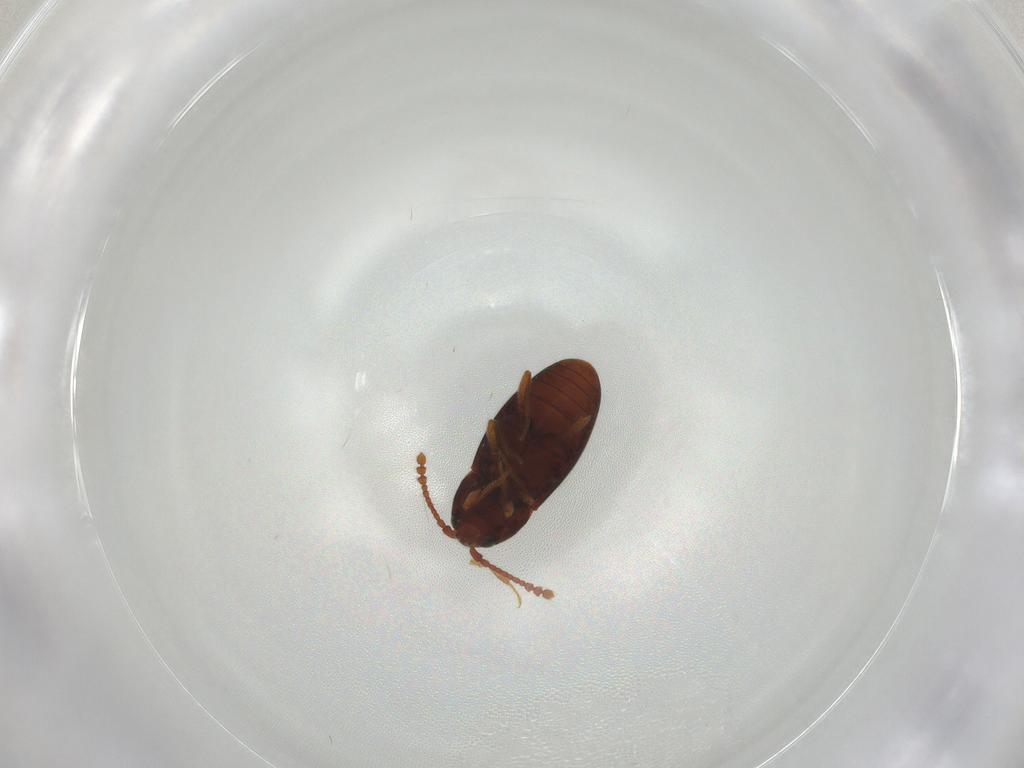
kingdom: Animalia
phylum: Arthropoda
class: Insecta
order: Coleoptera
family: Cryptophagidae
